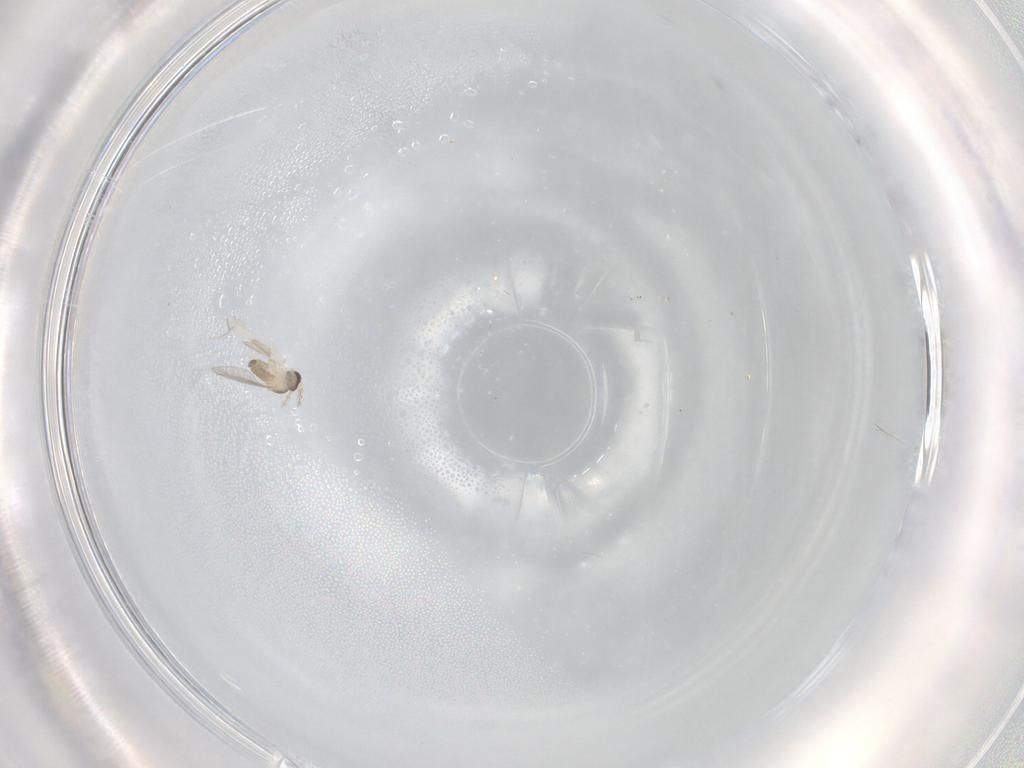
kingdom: Animalia
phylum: Arthropoda
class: Insecta
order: Diptera
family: Cecidomyiidae
